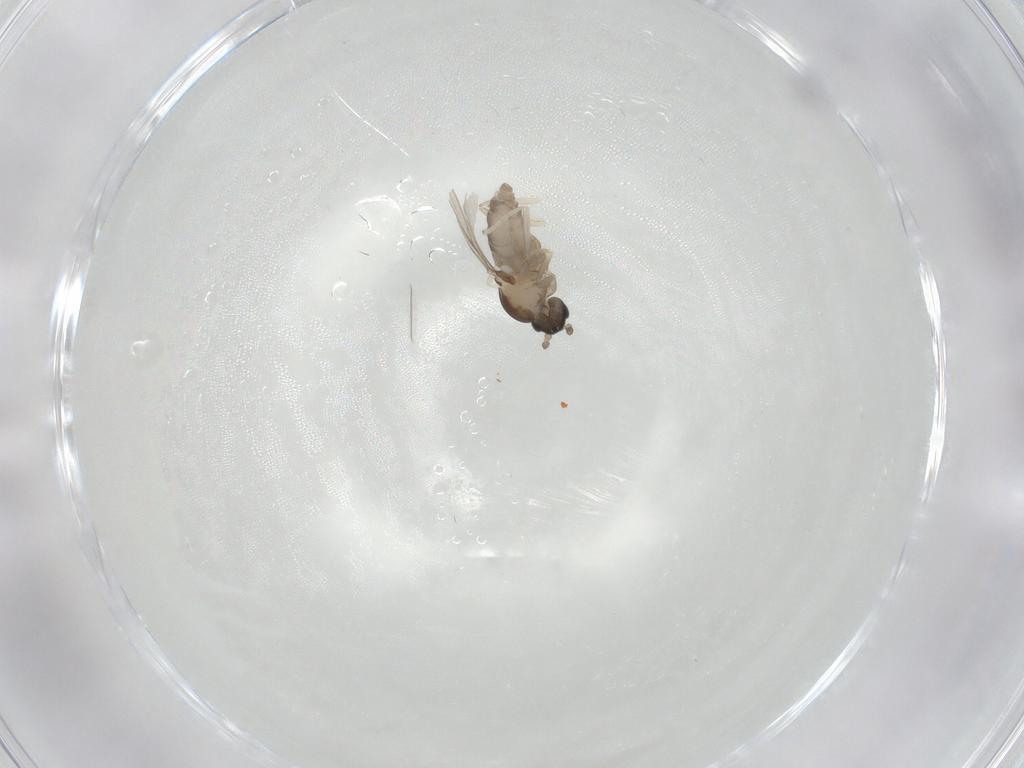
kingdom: Animalia
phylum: Arthropoda
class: Insecta
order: Diptera
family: Cecidomyiidae
